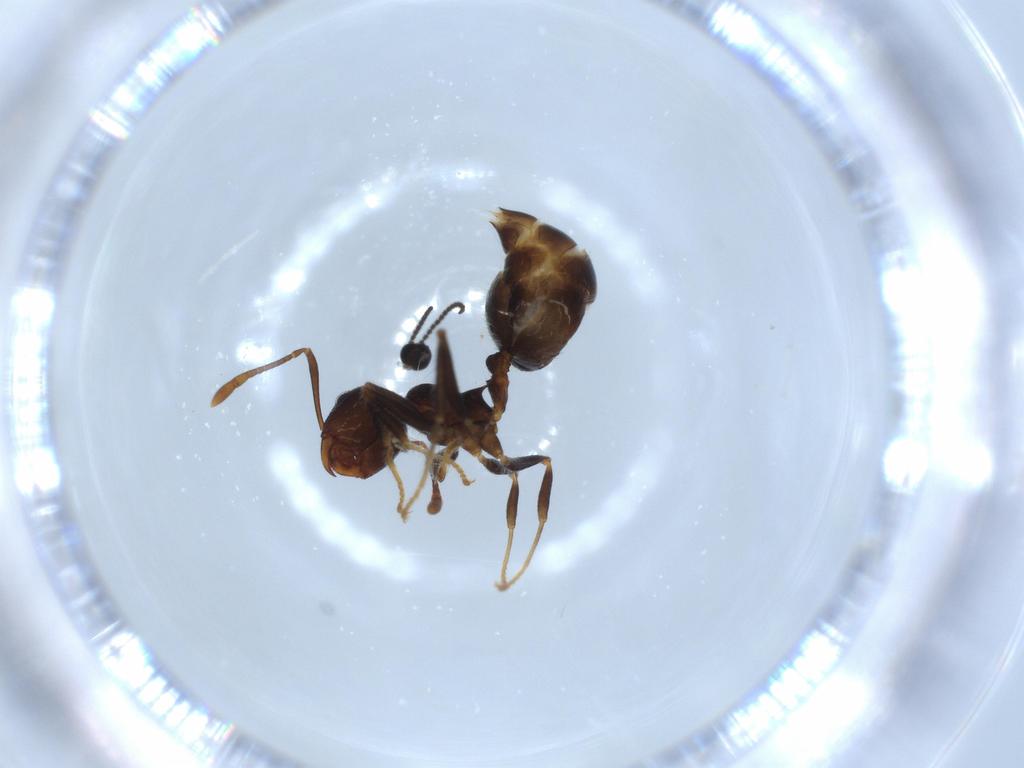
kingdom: Animalia
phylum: Arthropoda
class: Insecta
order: Hymenoptera
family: Formicidae
